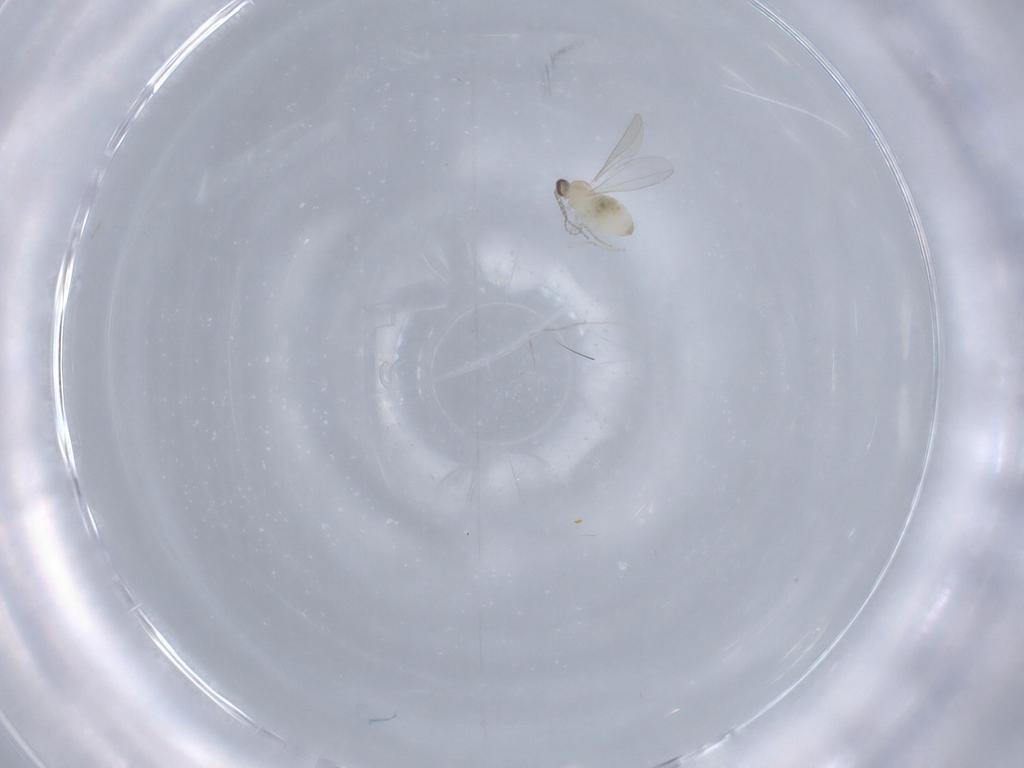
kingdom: Animalia
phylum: Arthropoda
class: Insecta
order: Diptera
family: Cecidomyiidae
